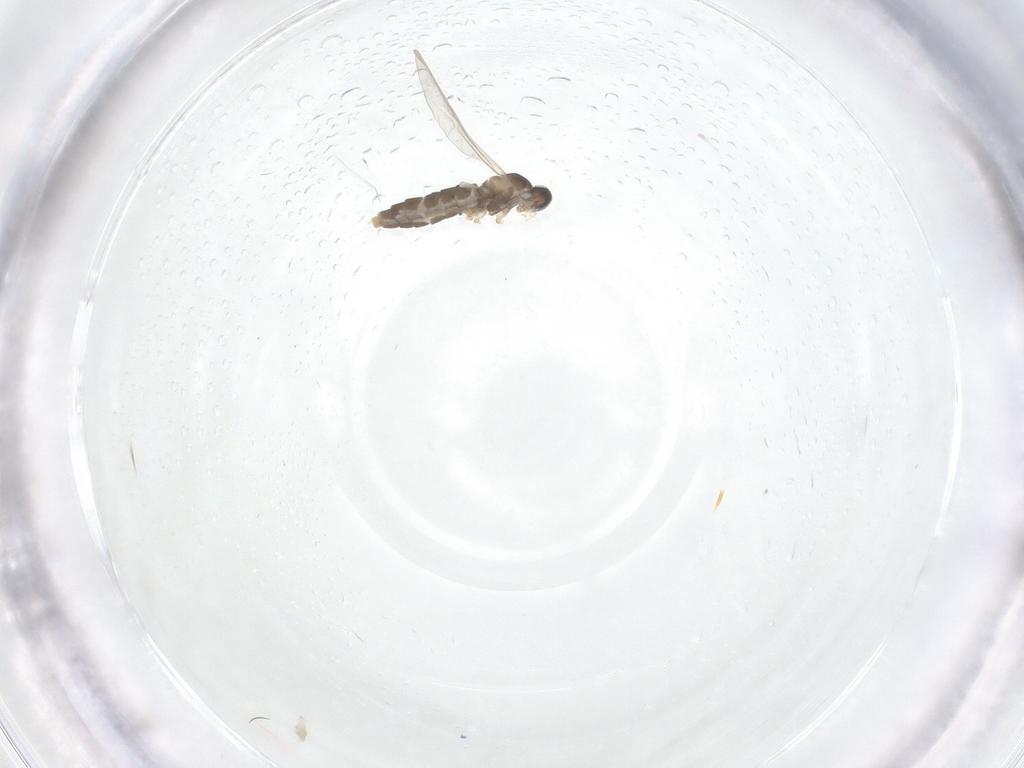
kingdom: Animalia
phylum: Arthropoda
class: Insecta
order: Diptera
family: Cecidomyiidae
